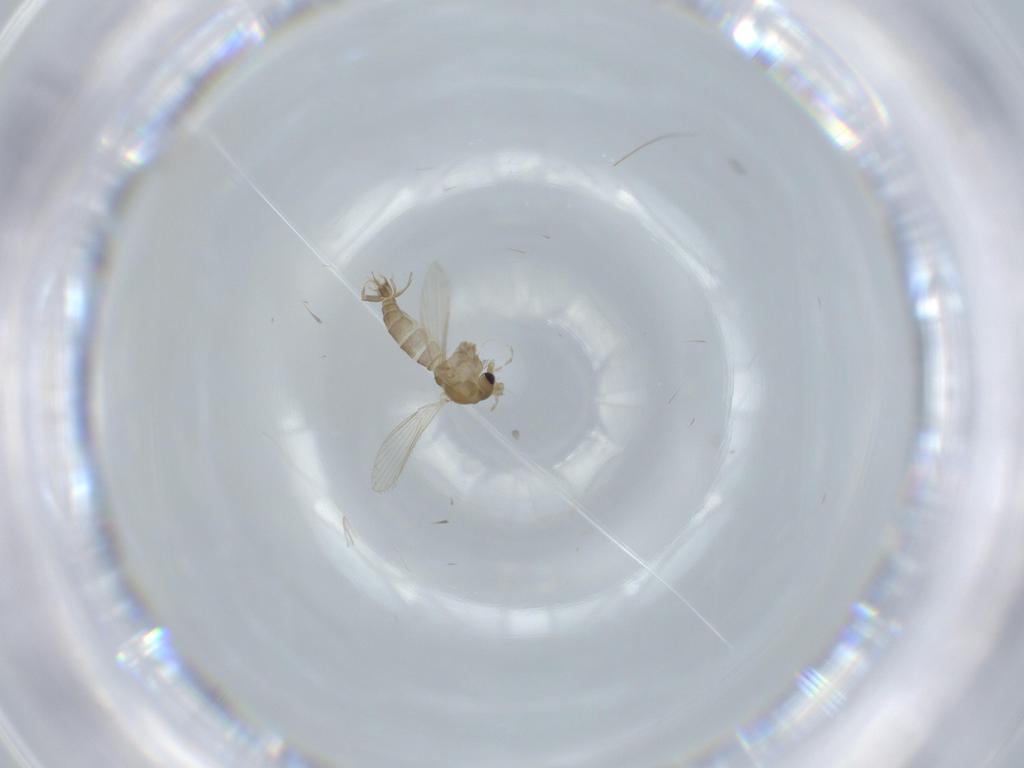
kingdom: Animalia
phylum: Arthropoda
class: Insecta
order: Diptera
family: Psychodidae
